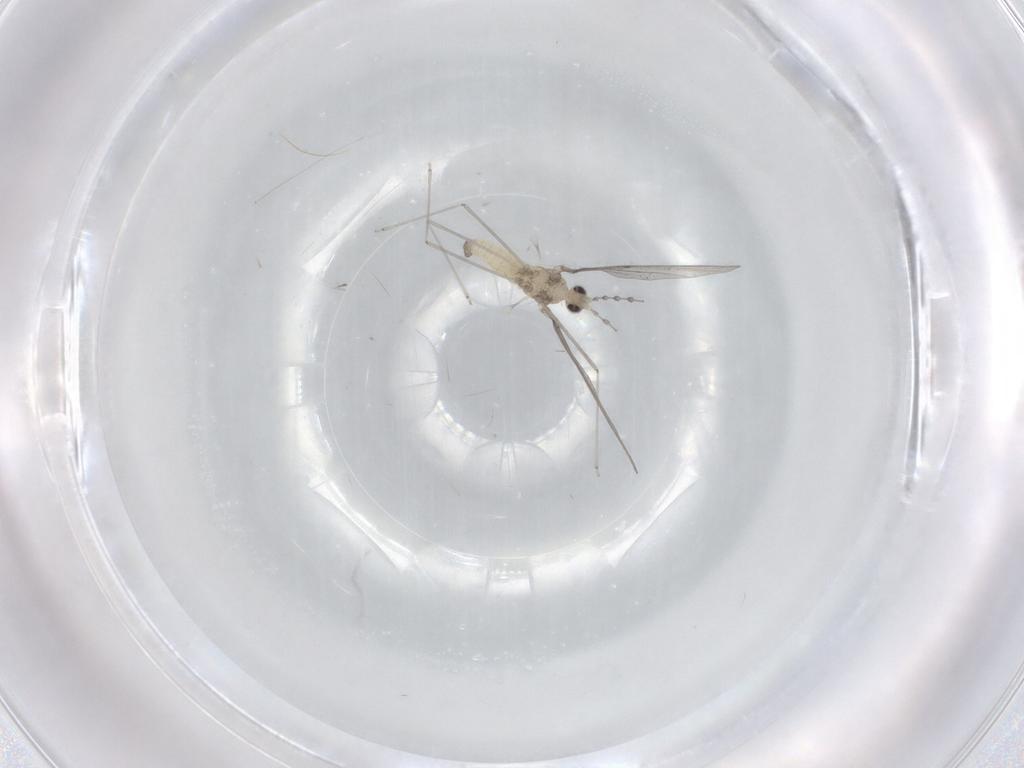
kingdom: Animalia
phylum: Arthropoda
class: Insecta
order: Diptera
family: Cecidomyiidae
